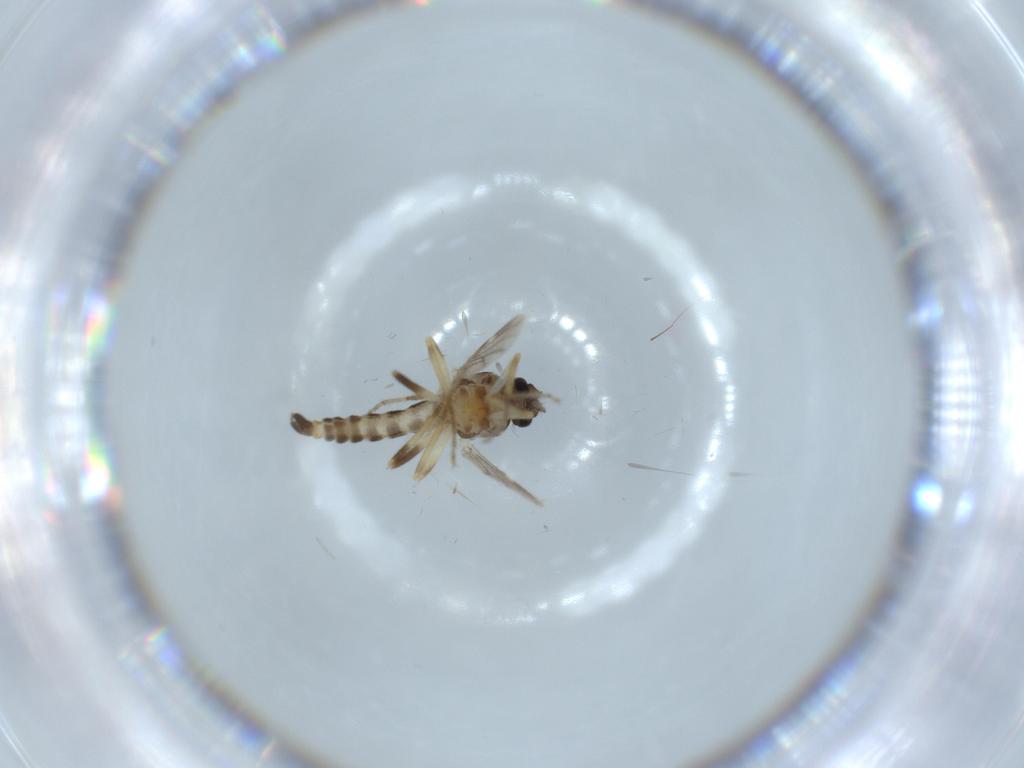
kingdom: Animalia
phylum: Arthropoda
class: Insecta
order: Diptera
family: Ceratopogonidae
